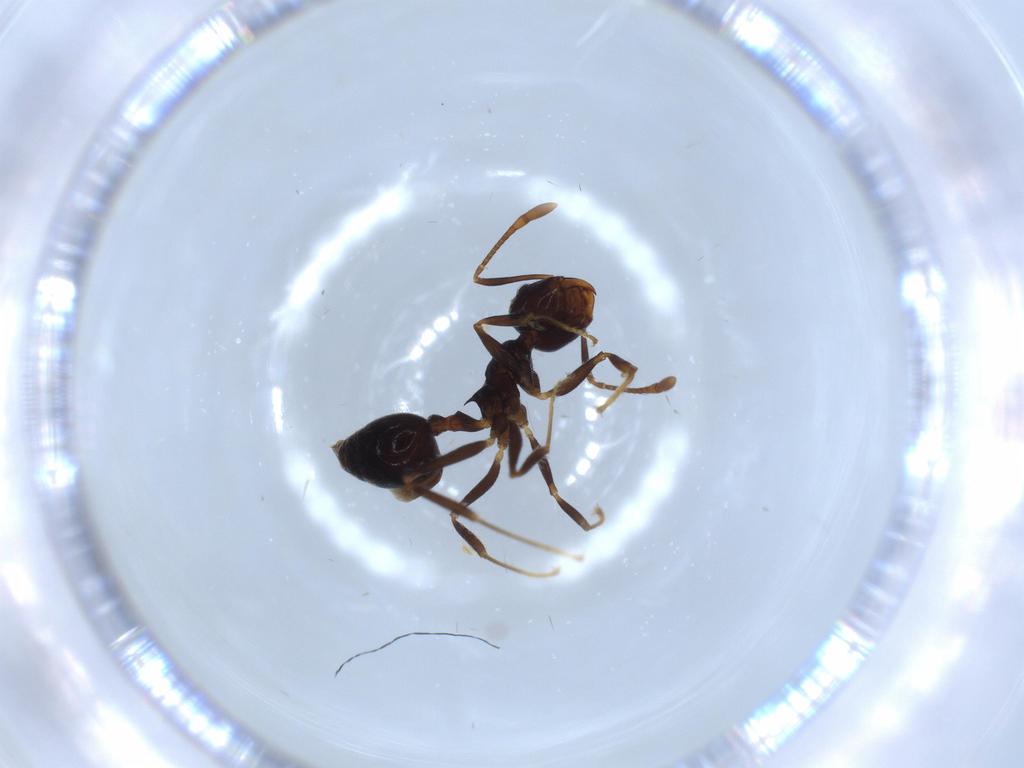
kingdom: Animalia
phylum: Arthropoda
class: Insecta
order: Hymenoptera
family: Formicidae
